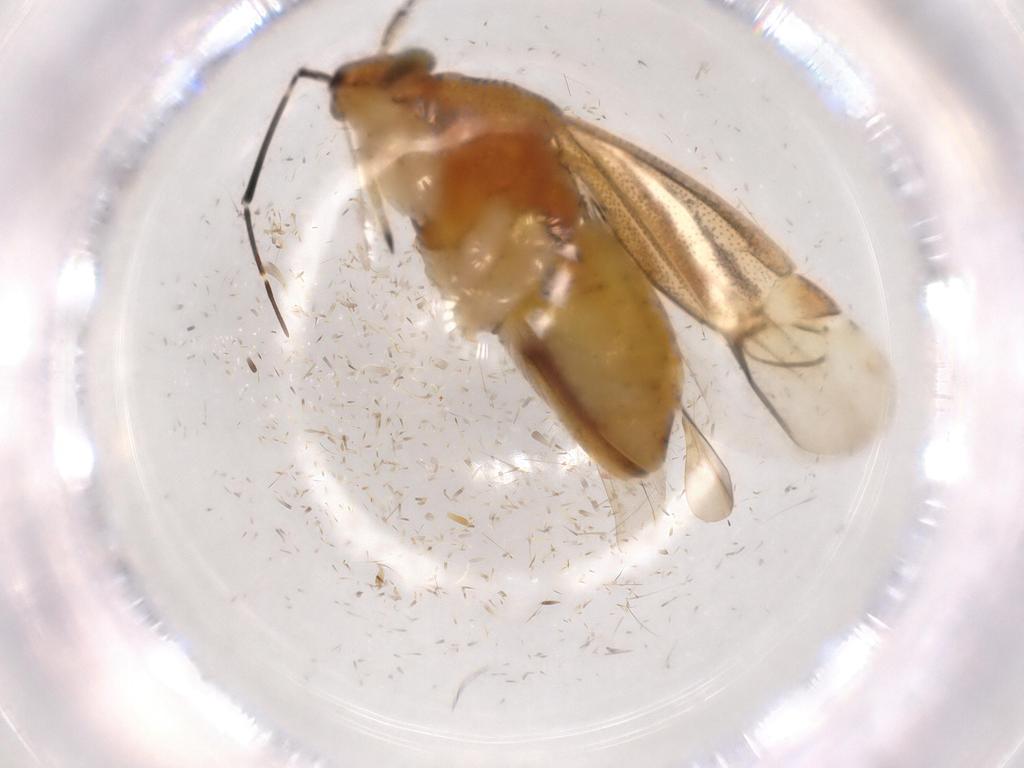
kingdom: Animalia
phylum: Arthropoda
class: Insecta
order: Hemiptera
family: Miridae
